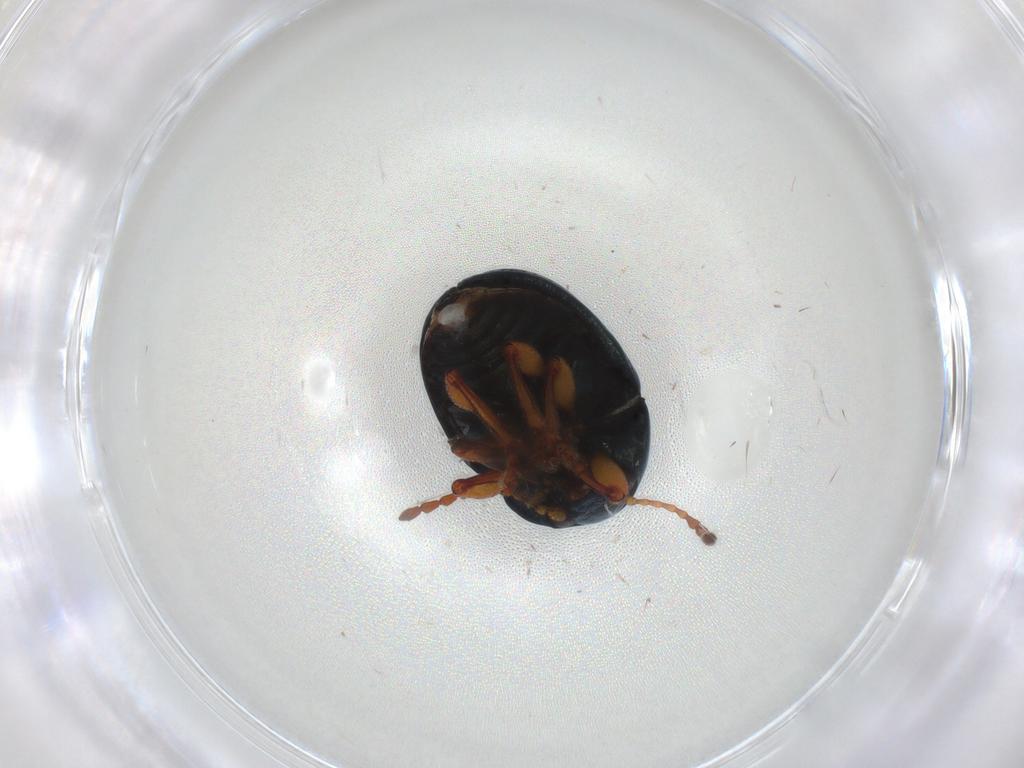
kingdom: Animalia
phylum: Arthropoda
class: Insecta
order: Coleoptera
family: Chrysomelidae
